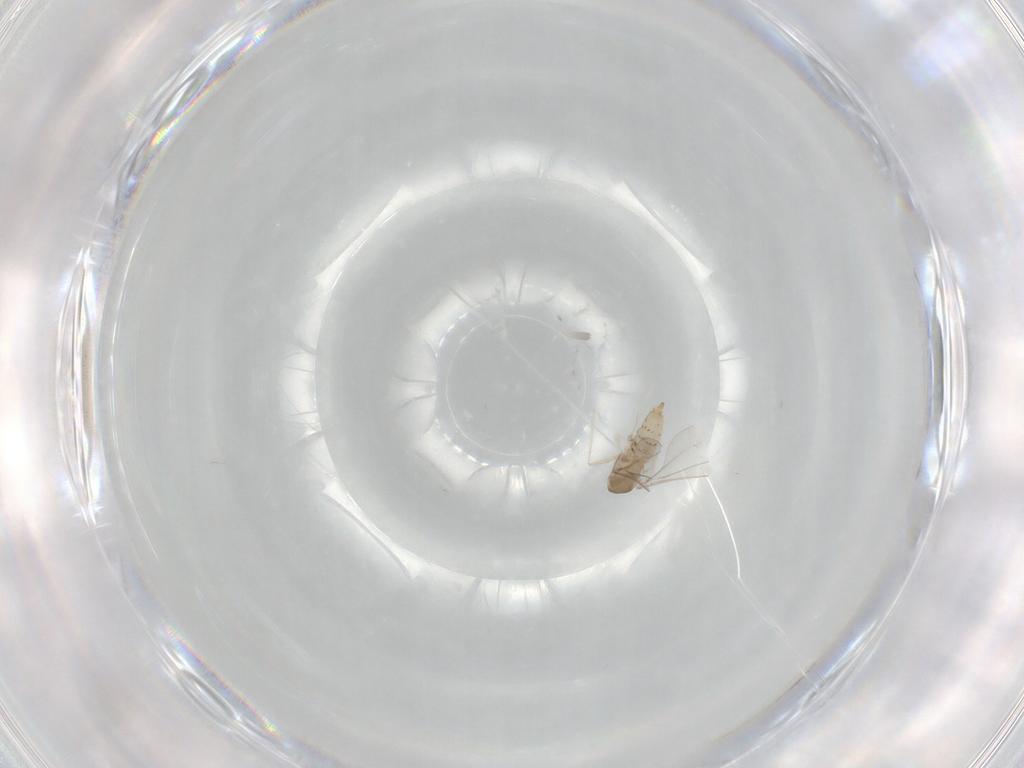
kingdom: Animalia
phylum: Arthropoda
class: Insecta
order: Diptera
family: Cecidomyiidae
